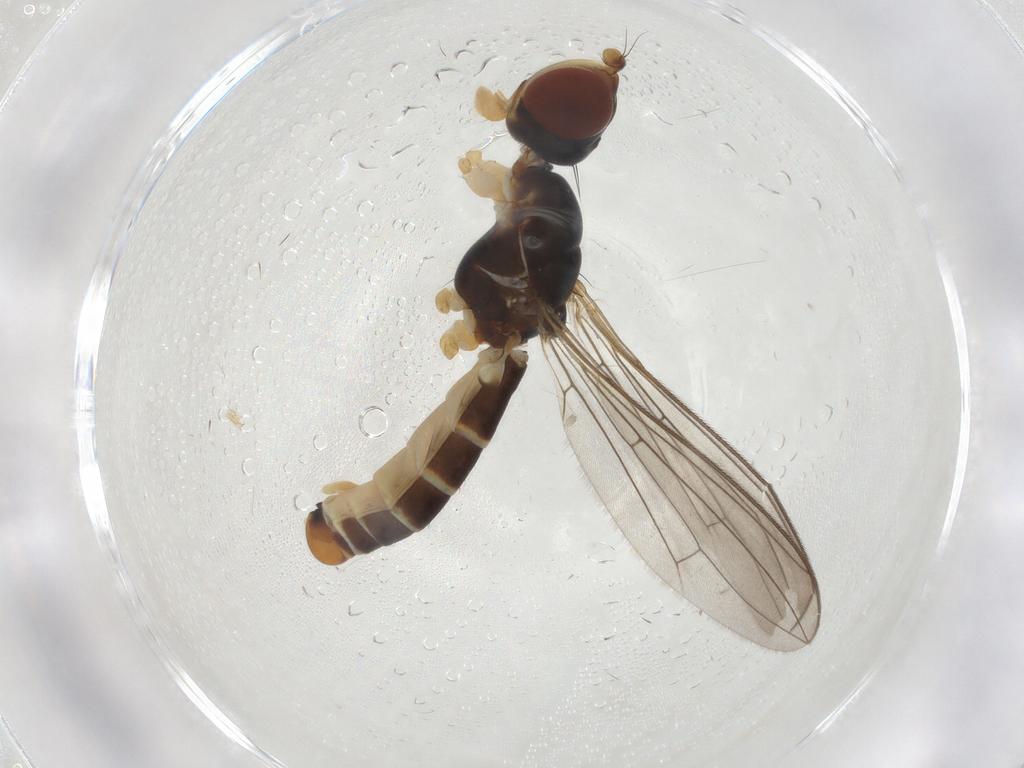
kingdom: Animalia
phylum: Arthropoda
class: Insecta
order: Diptera
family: Micropezidae
